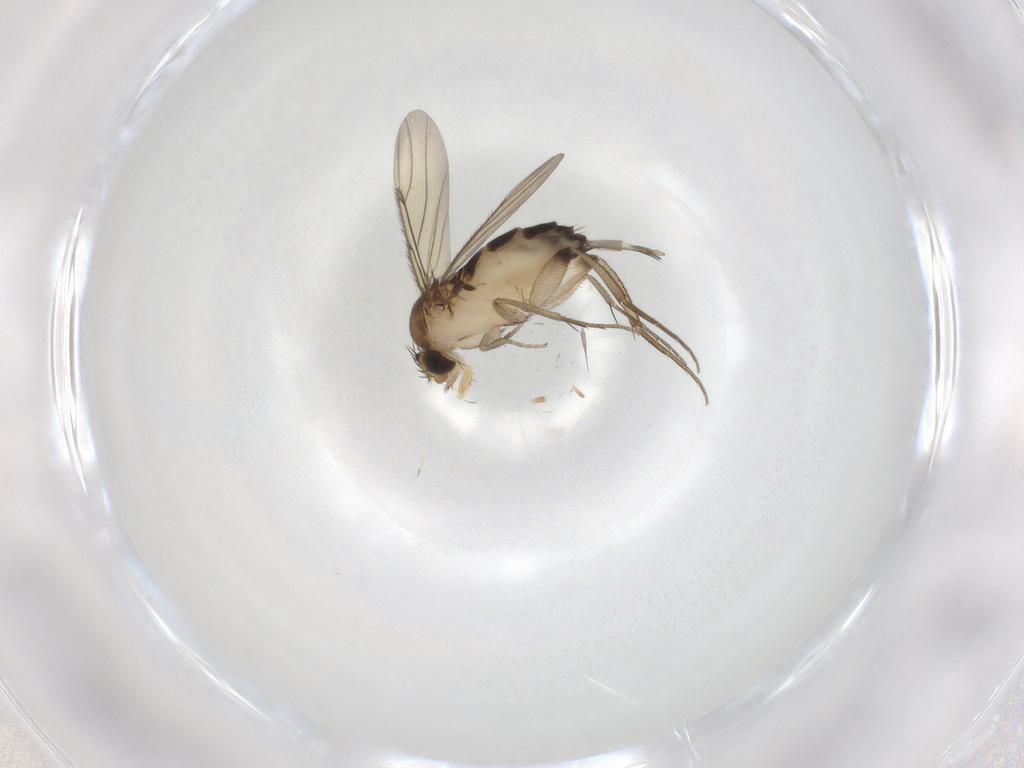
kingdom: Animalia
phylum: Arthropoda
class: Insecta
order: Diptera
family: Phoridae
